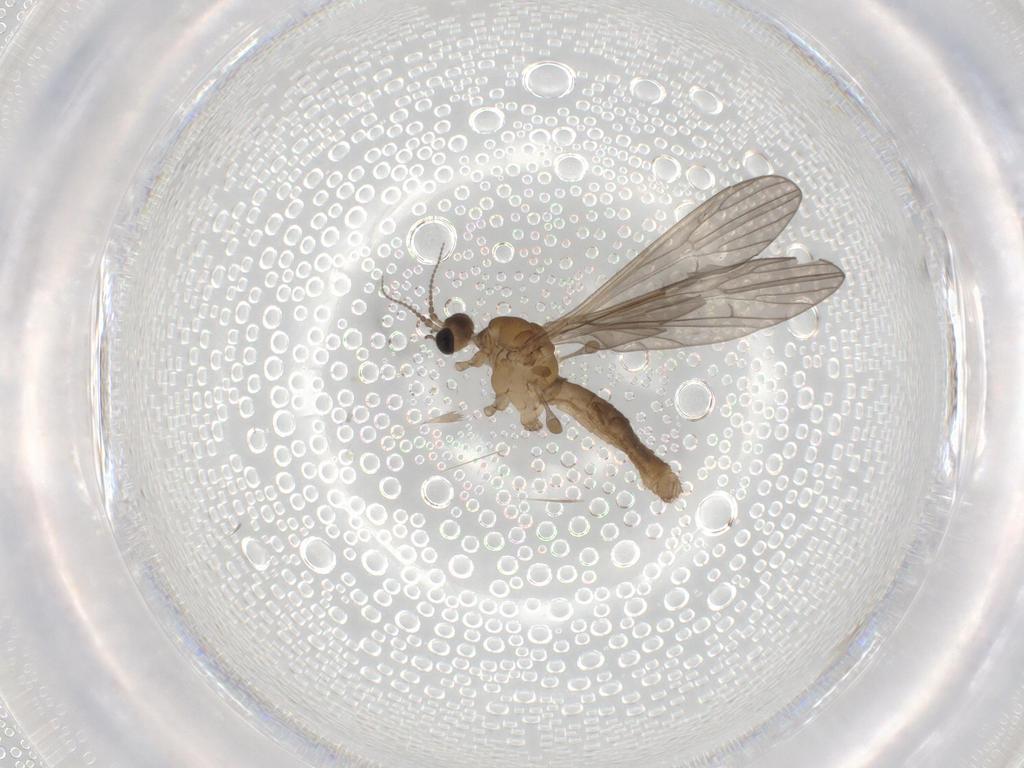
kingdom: Animalia
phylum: Arthropoda
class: Insecta
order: Diptera
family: Chironomidae
